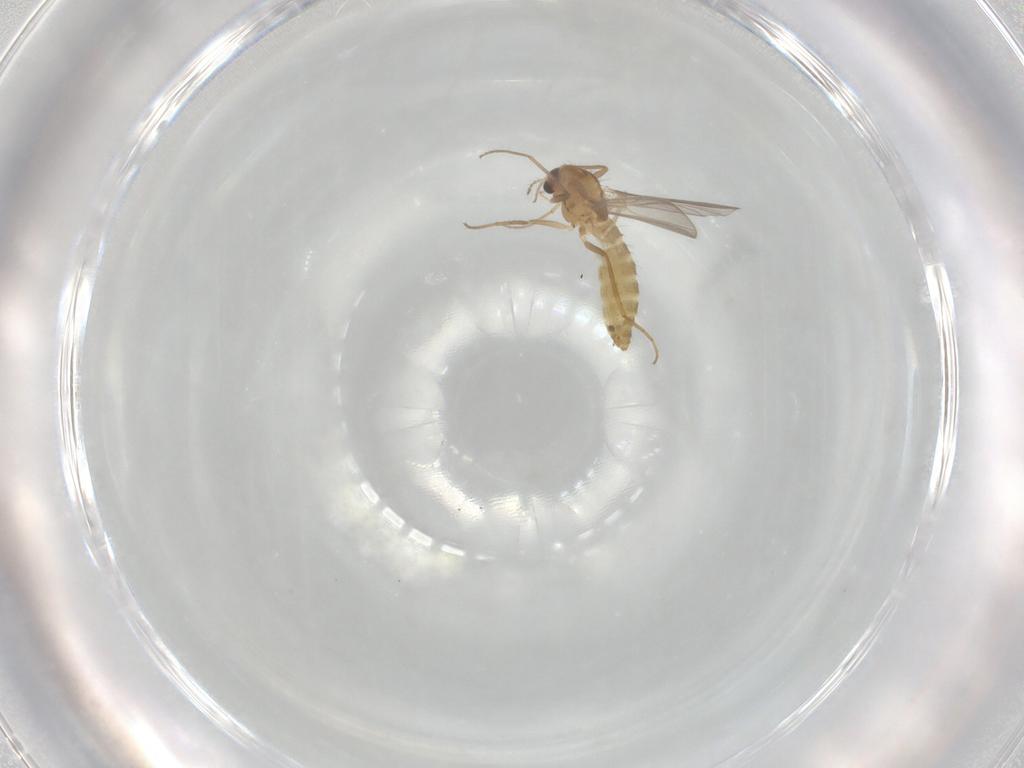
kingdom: Animalia
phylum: Arthropoda
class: Insecta
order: Diptera
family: Chironomidae
